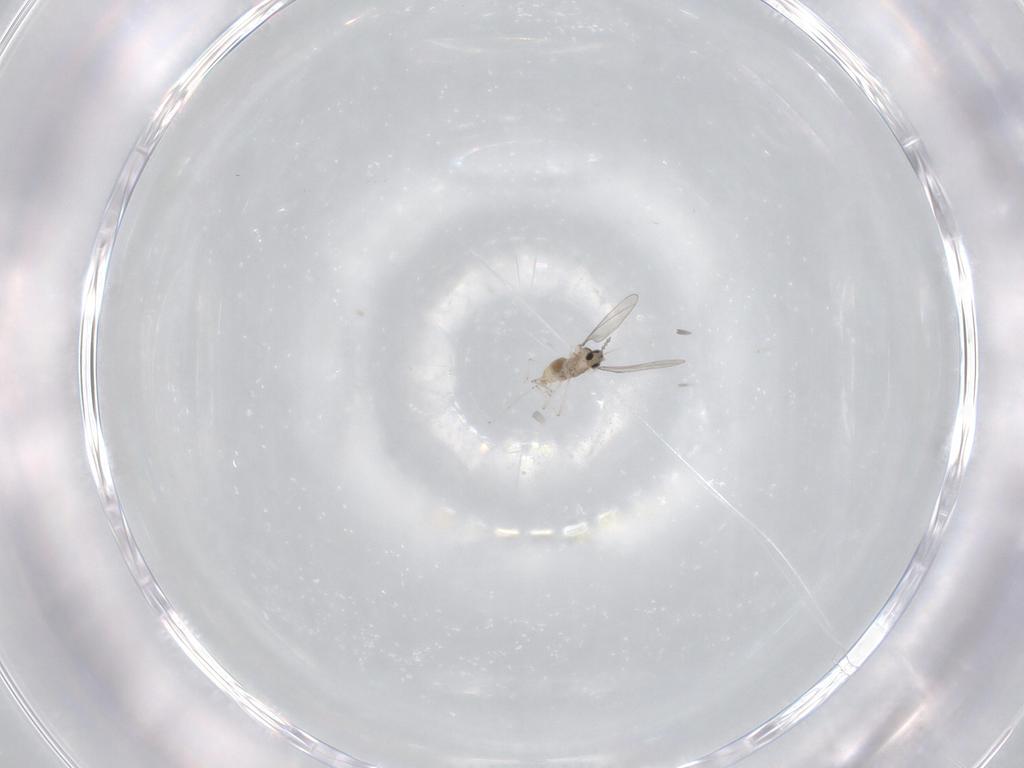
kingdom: Animalia
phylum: Arthropoda
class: Insecta
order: Diptera
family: Cecidomyiidae
